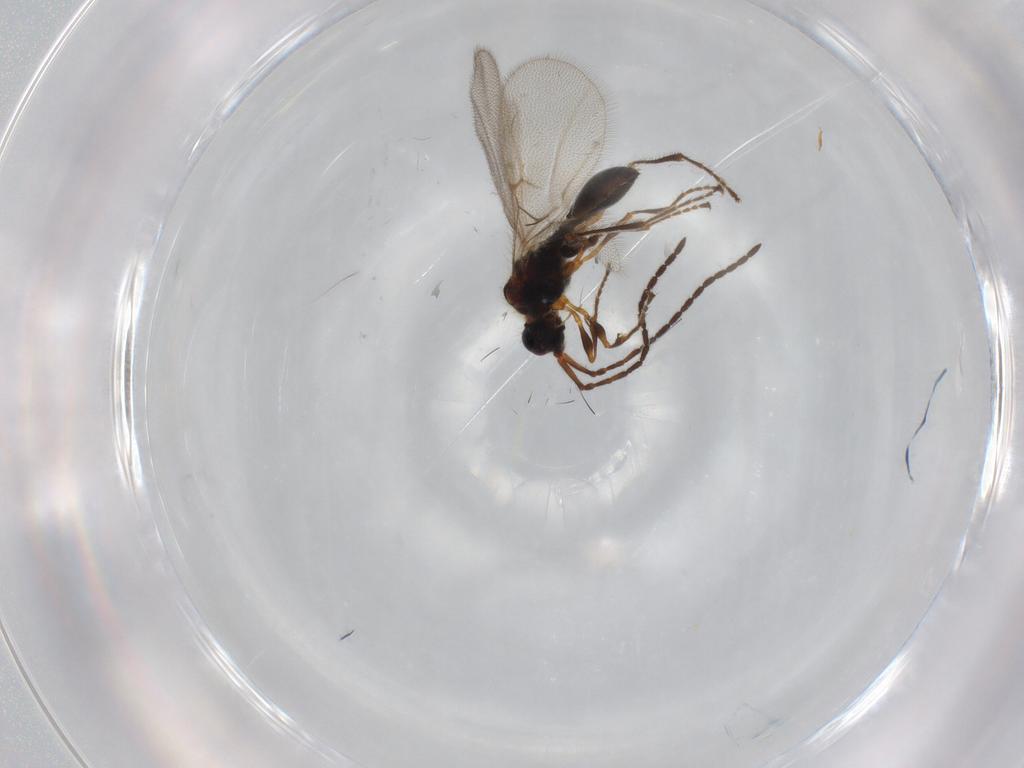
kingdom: Animalia
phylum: Arthropoda
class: Insecta
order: Hymenoptera
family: Diapriidae
